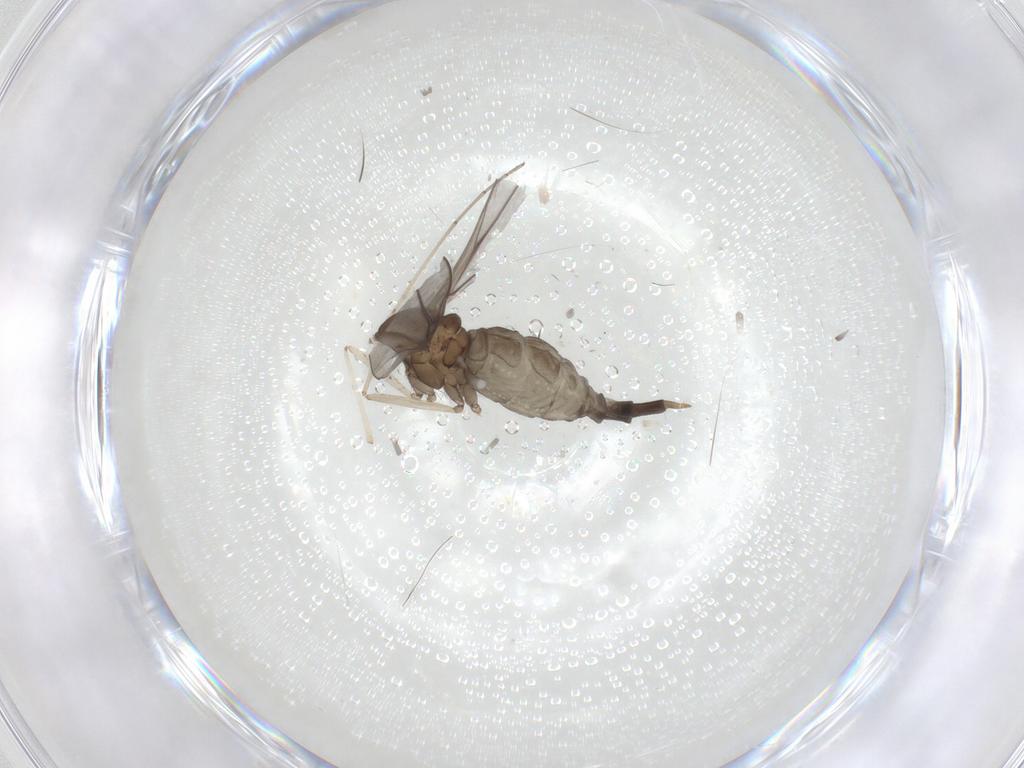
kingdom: Animalia
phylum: Arthropoda
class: Insecta
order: Diptera
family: Cecidomyiidae
